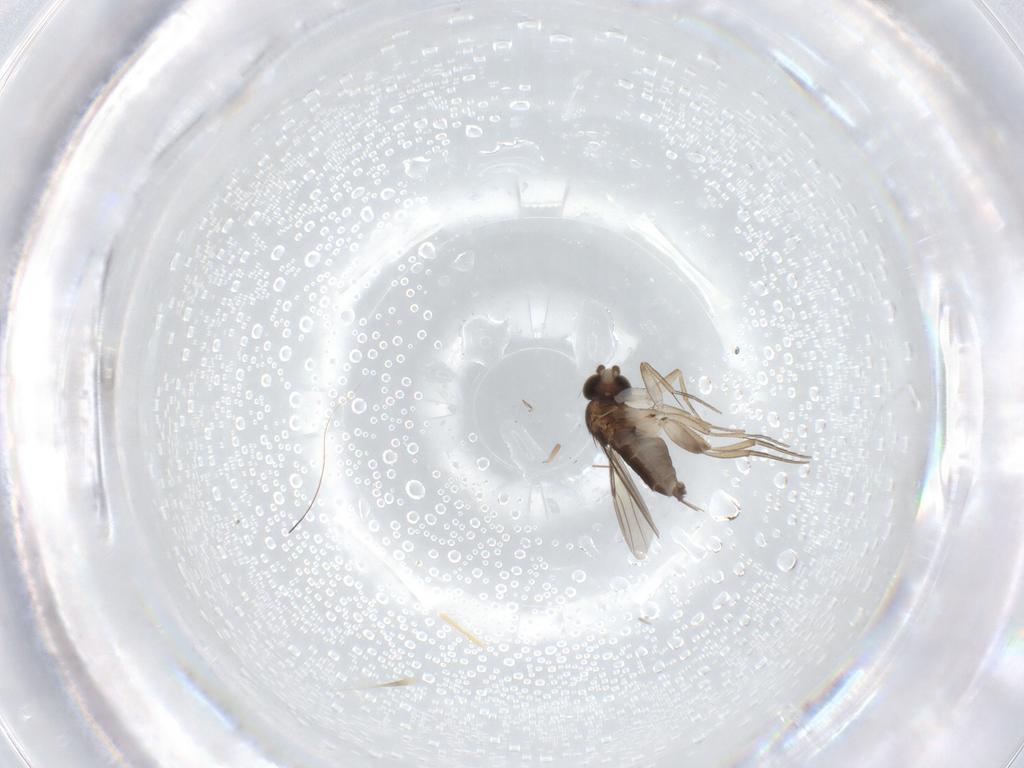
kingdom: Animalia
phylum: Arthropoda
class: Insecta
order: Diptera
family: Phoridae
